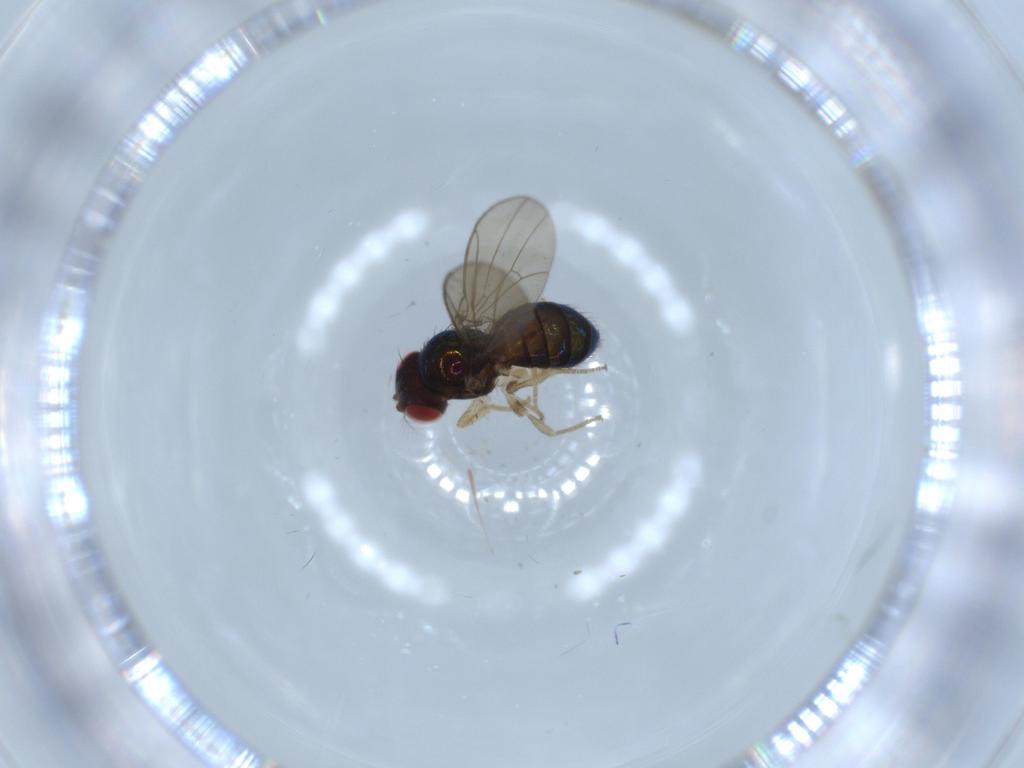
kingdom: Animalia
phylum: Arthropoda
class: Insecta
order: Diptera
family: Drosophilidae
